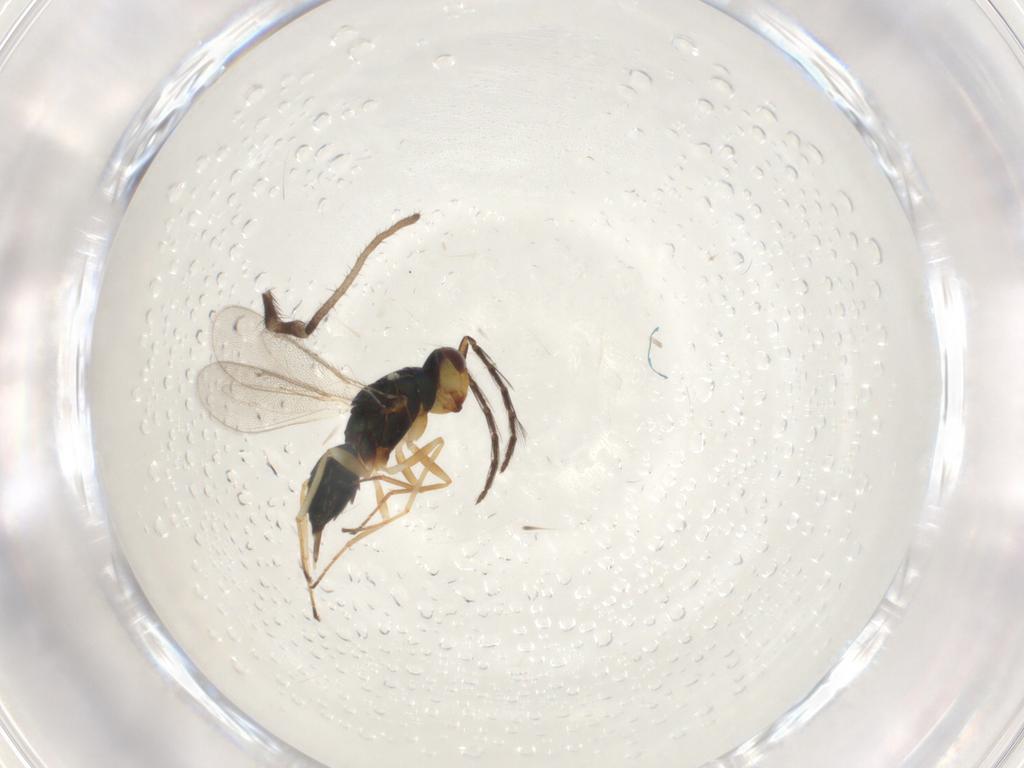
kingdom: Animalia
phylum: Arthropoda
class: Insecta
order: Hymenoptera
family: Eulophidae
